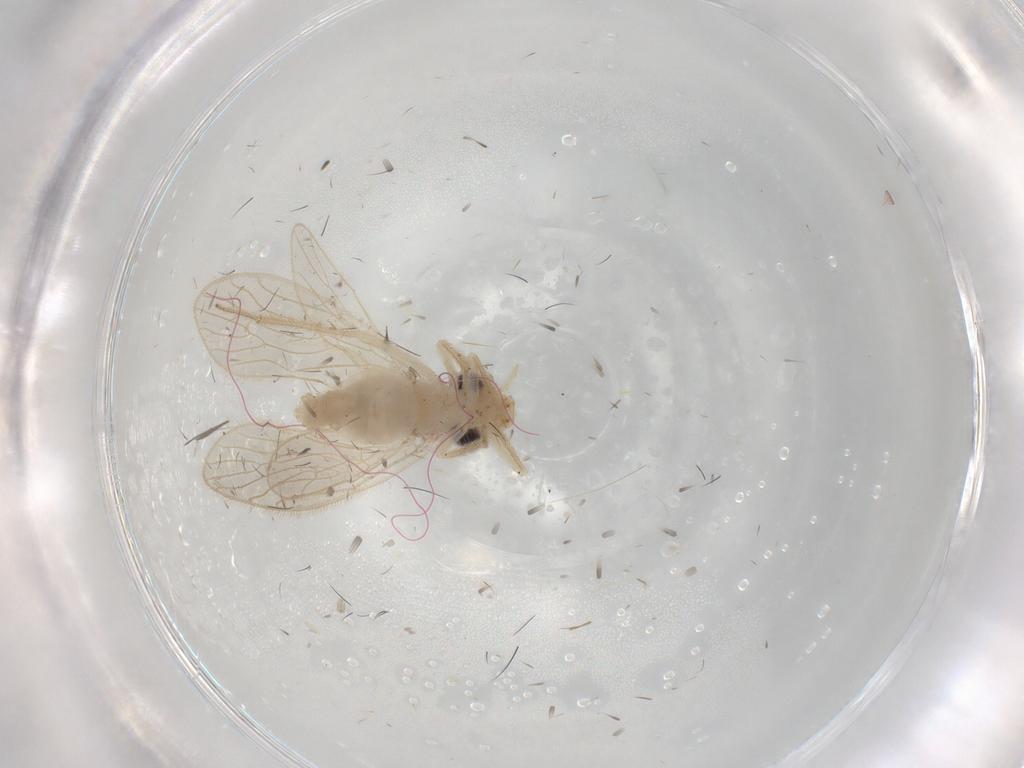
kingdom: Animalia
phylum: Arthropoda
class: Insecta
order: Psocodea
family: Cladiopsocidae
